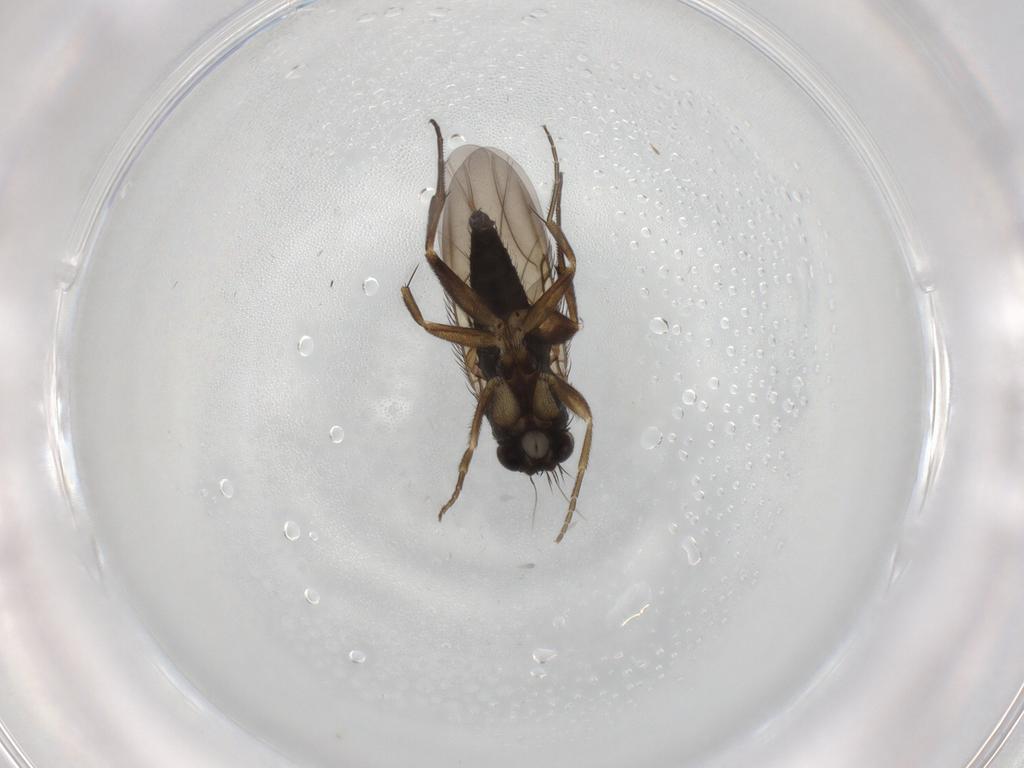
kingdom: Animalia
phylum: Arthropoda
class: Insecta
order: Diptera
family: Phoridae
